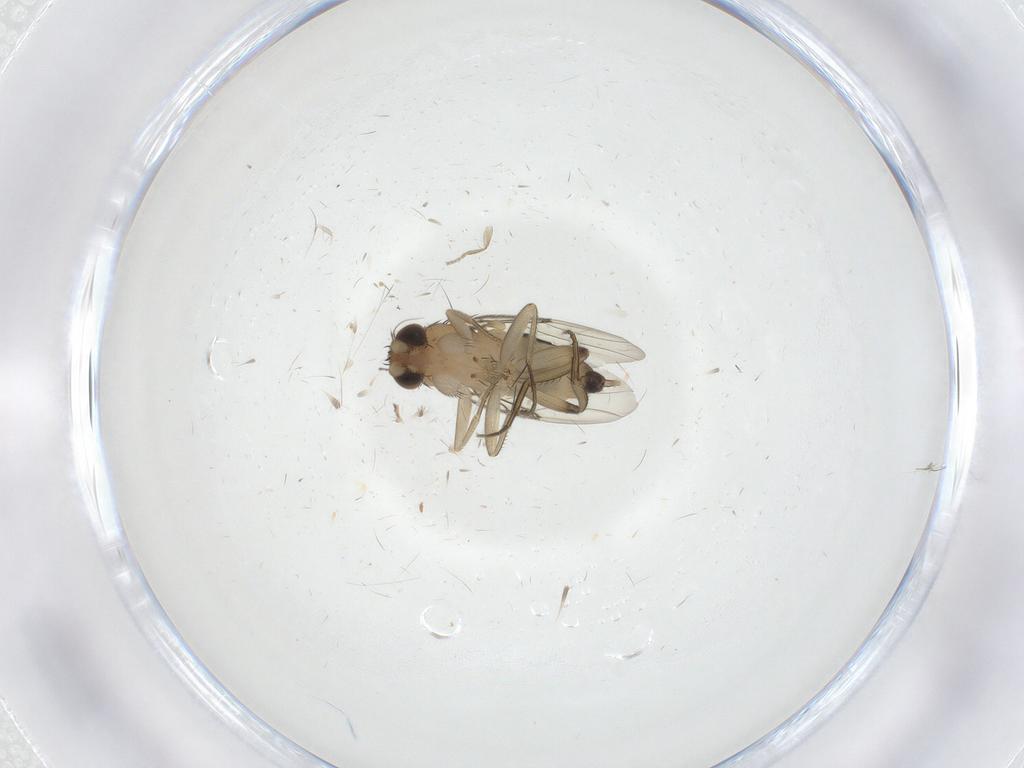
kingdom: Animalia
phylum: Arthropoda
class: Insecta
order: Diptera
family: Phoridae
